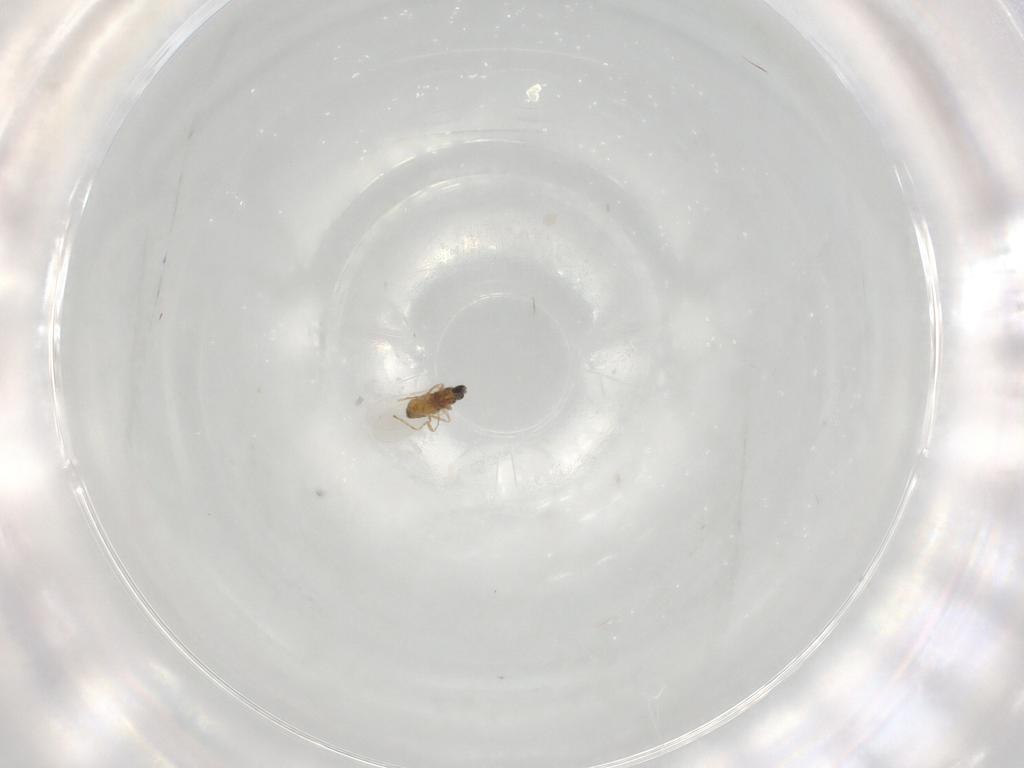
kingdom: Animalia
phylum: Arthropoda
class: Insecta
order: Diptera
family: Cecidomyiidae
